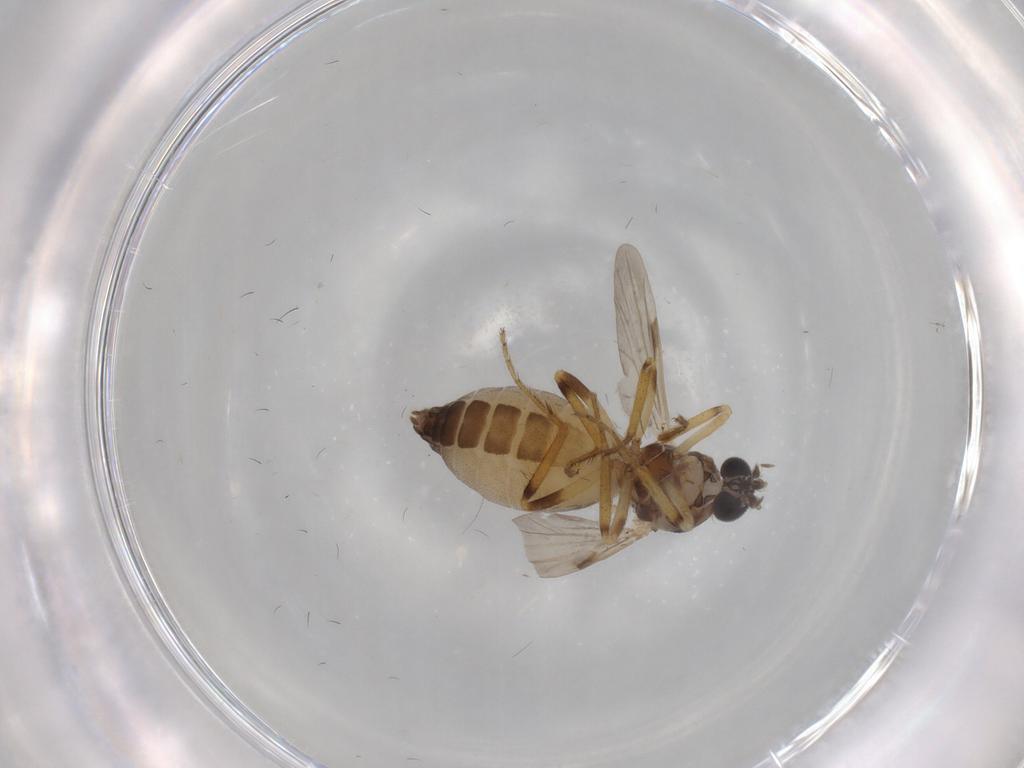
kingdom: Animalia
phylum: Arthropoda
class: Insecta
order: Diptera
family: Ceratopogonidae
